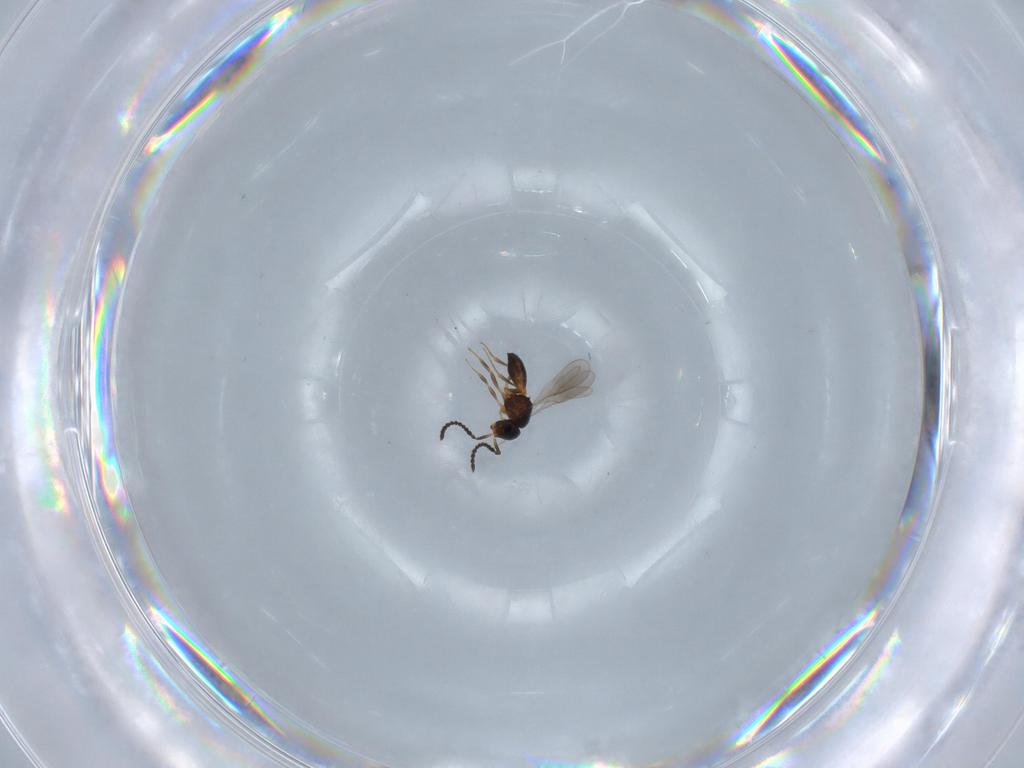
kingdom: Animalia
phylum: Arthropoda
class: Insecta
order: Hymenoptera
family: Scelionidae
